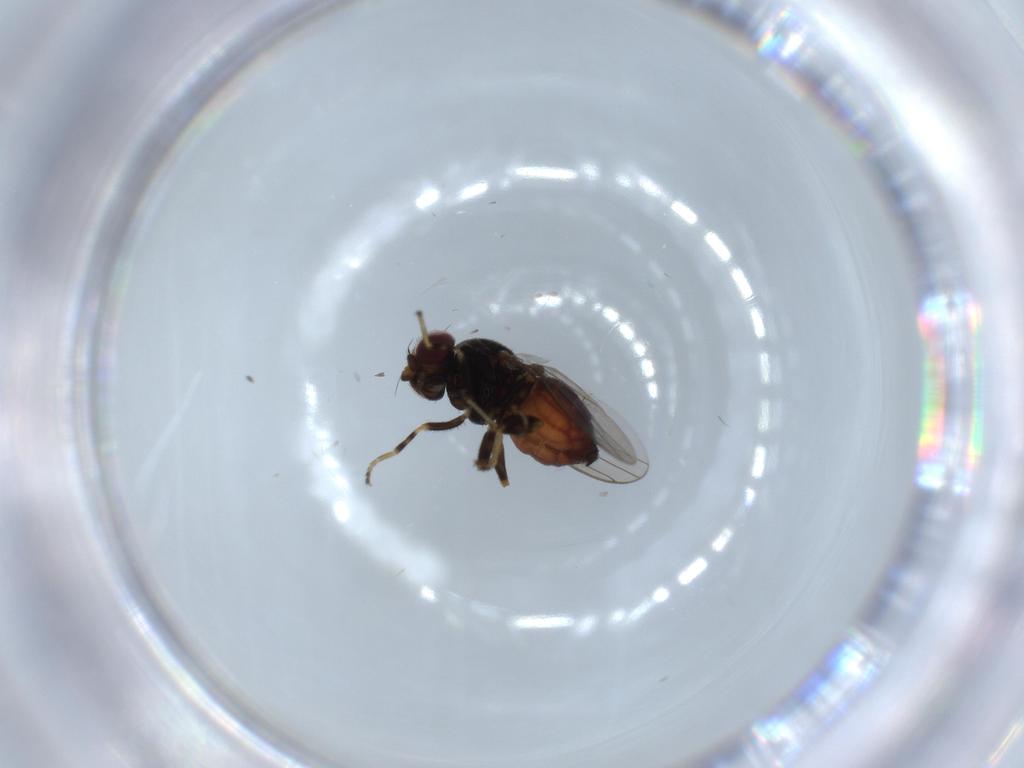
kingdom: Animalia
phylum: Arthropoda
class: Insecta
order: Diptera
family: Chloropidae
